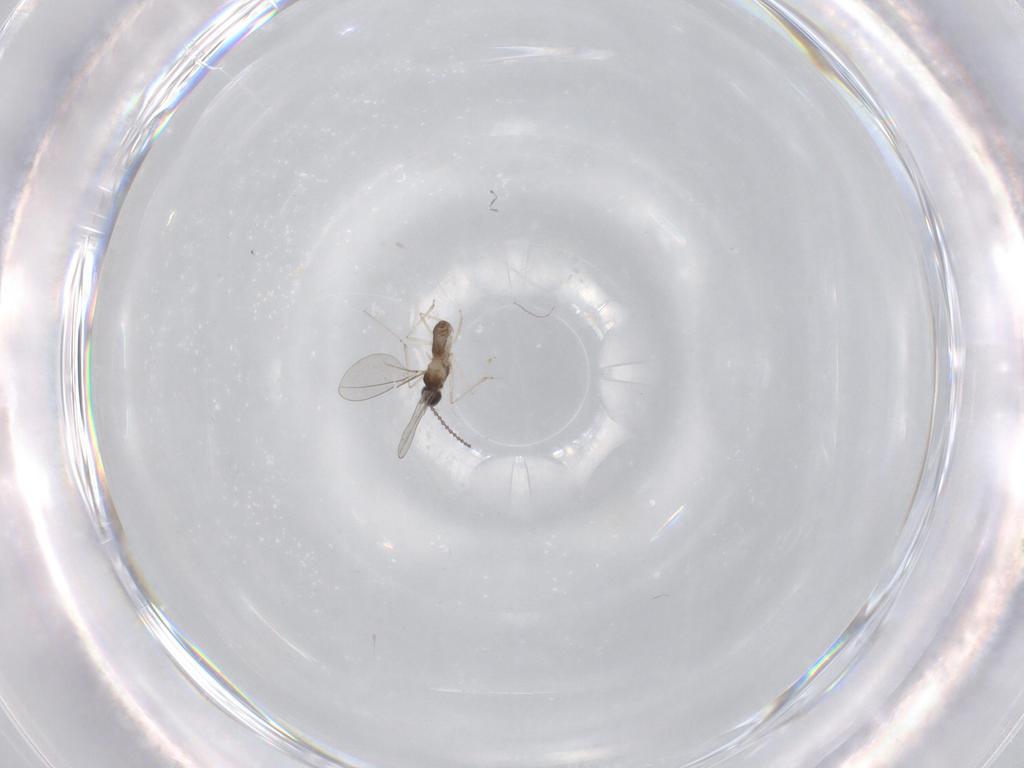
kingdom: Animalia
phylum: Arthropoda
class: Insecta
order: Diptera
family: Cecidomyiidae
